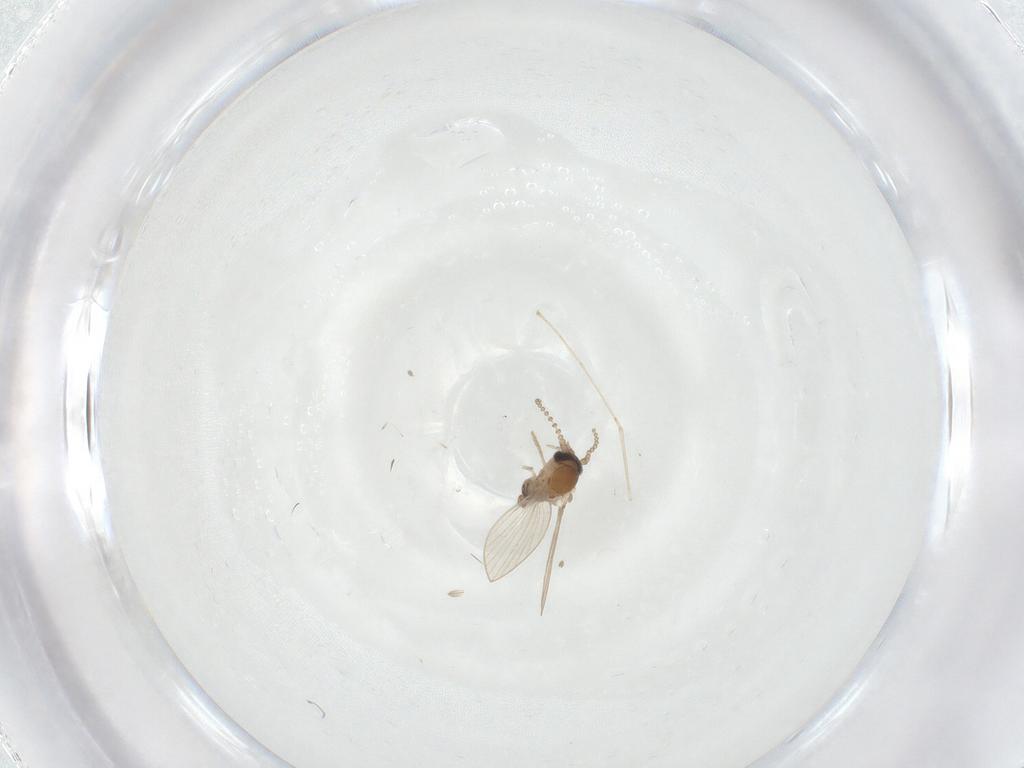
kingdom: Animalia
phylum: Arthropoda
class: Insecta
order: Diptera
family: Psychodidae
